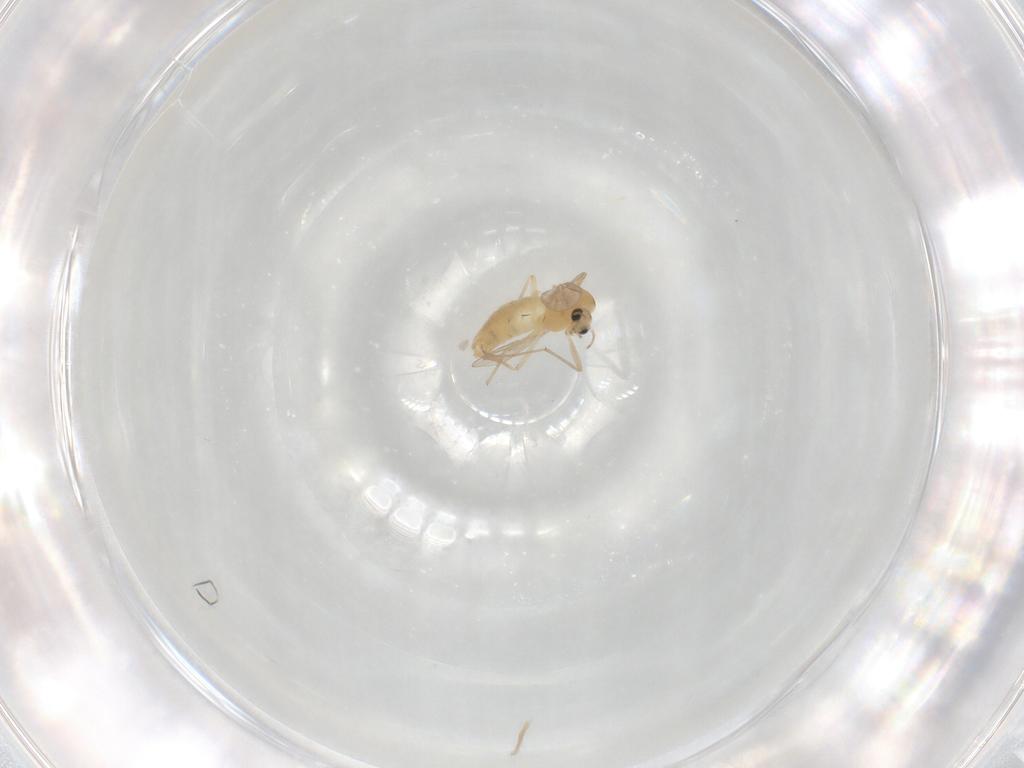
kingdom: Animalia
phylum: Arthropoda
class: Insecta
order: Diptera
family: Chironomidae
